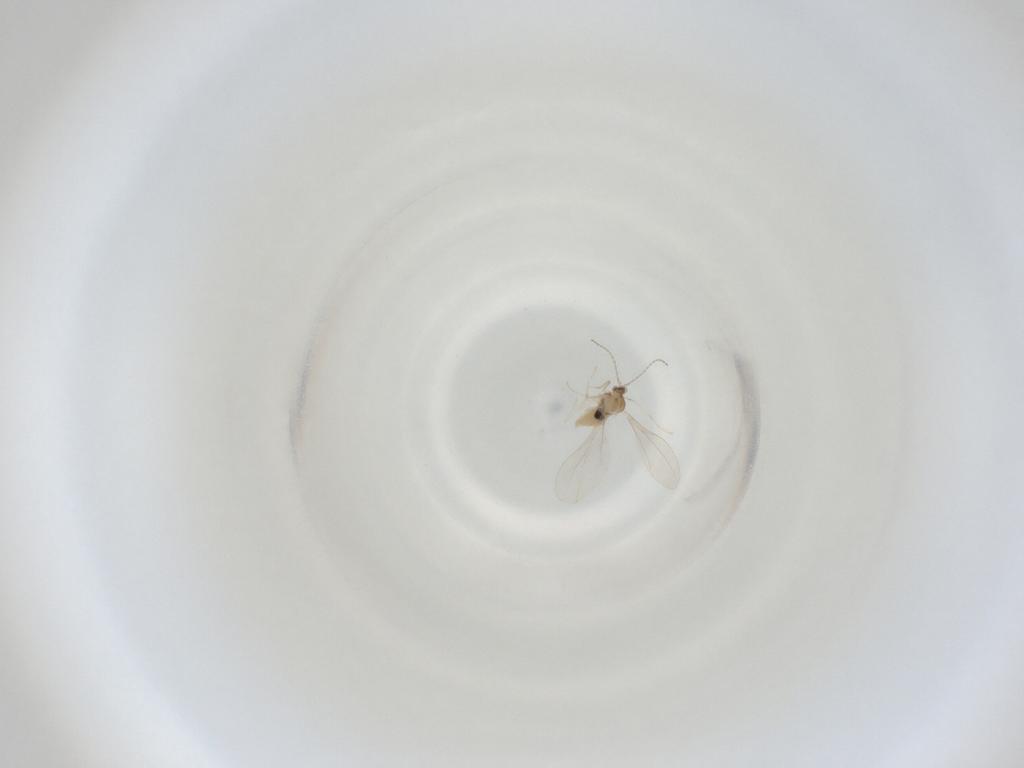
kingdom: Animalia
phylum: Arthropoda
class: Insecta
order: Diptera
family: Cecidomyiidae
